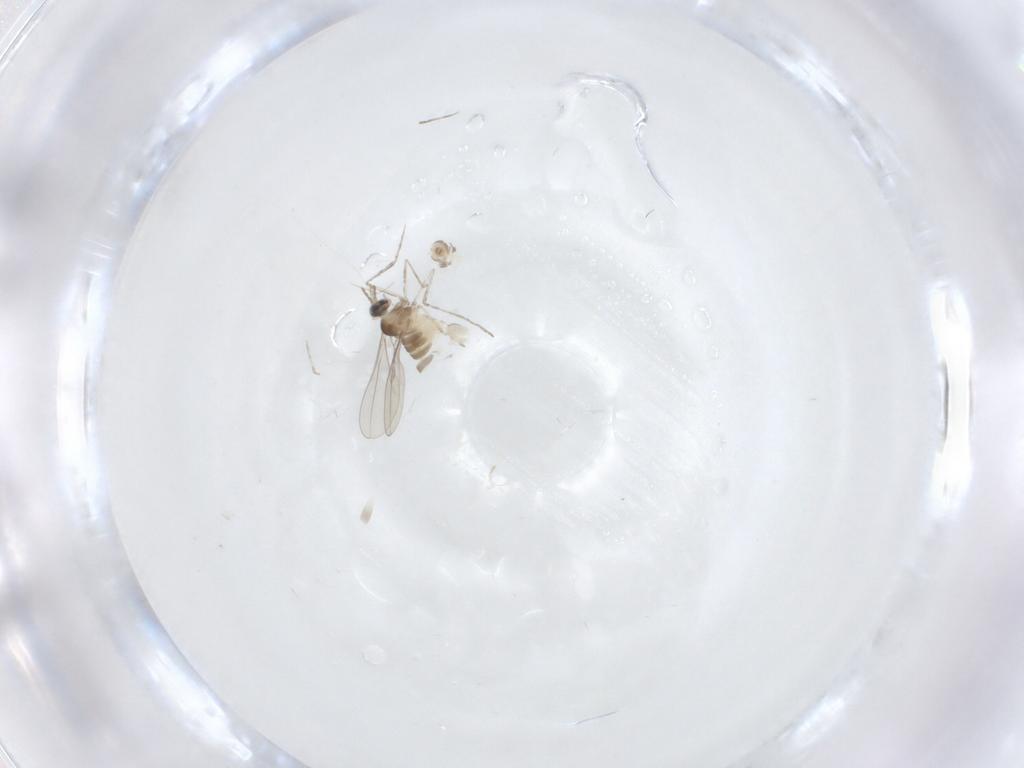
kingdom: Animalia
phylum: Arthropoda
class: Insecta
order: Diptera
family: Cecidomyiidae
